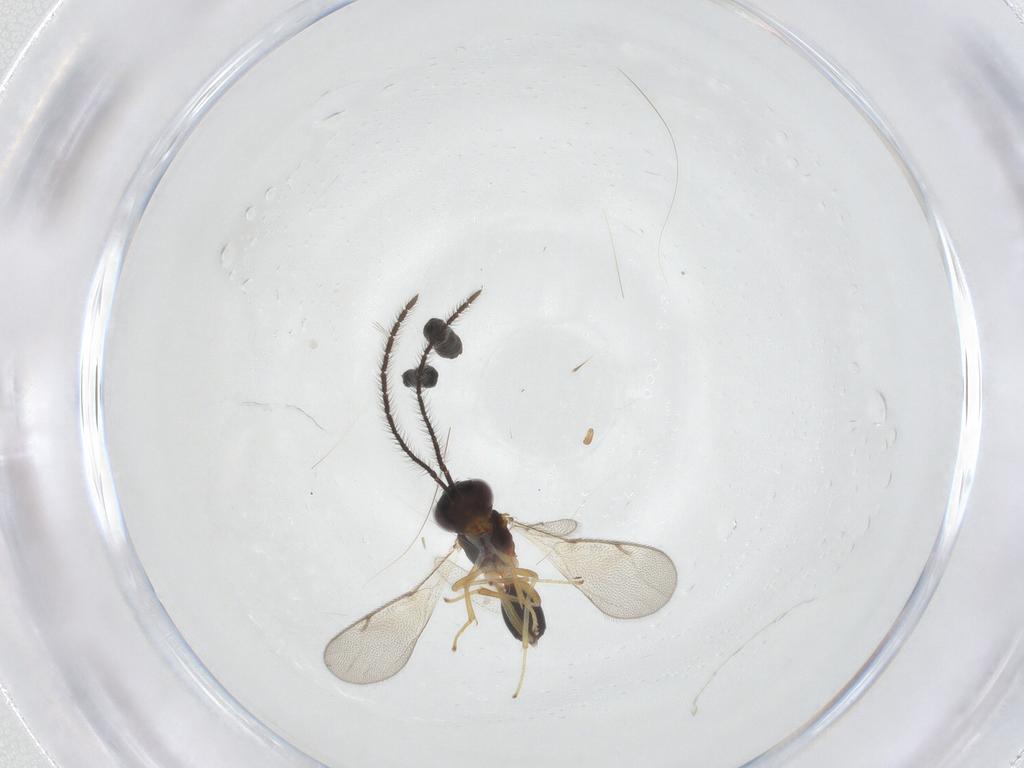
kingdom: Animalia
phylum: Arthropoda
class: Insecta
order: Hymenoptera
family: Diparidae
